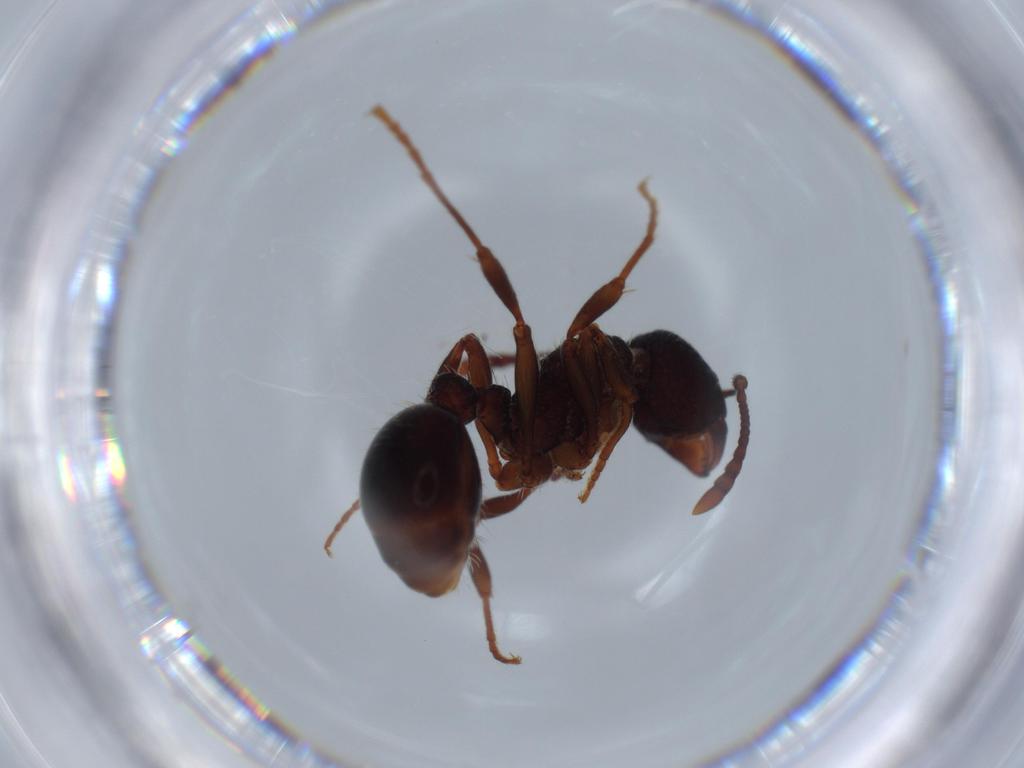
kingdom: Animalia
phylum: Arthropoda
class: Insecta
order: Hymenoptera
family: Formicidae
